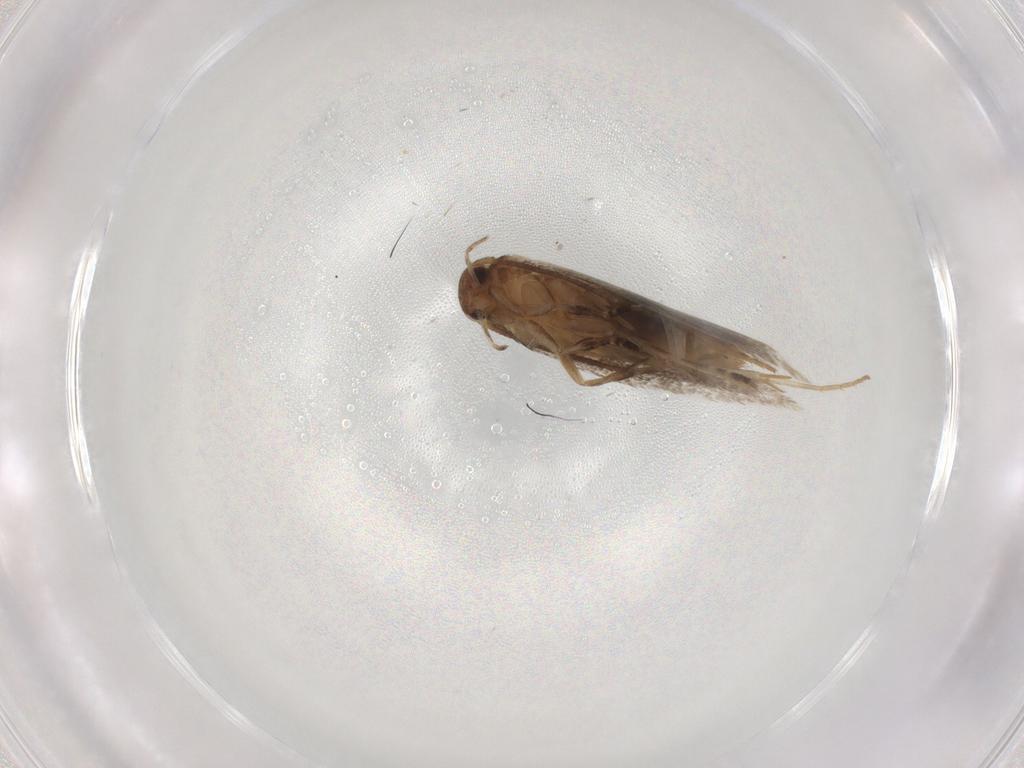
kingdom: Animalia
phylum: Arthropoda
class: Insecta
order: Lepidoptera
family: Elachistidae
